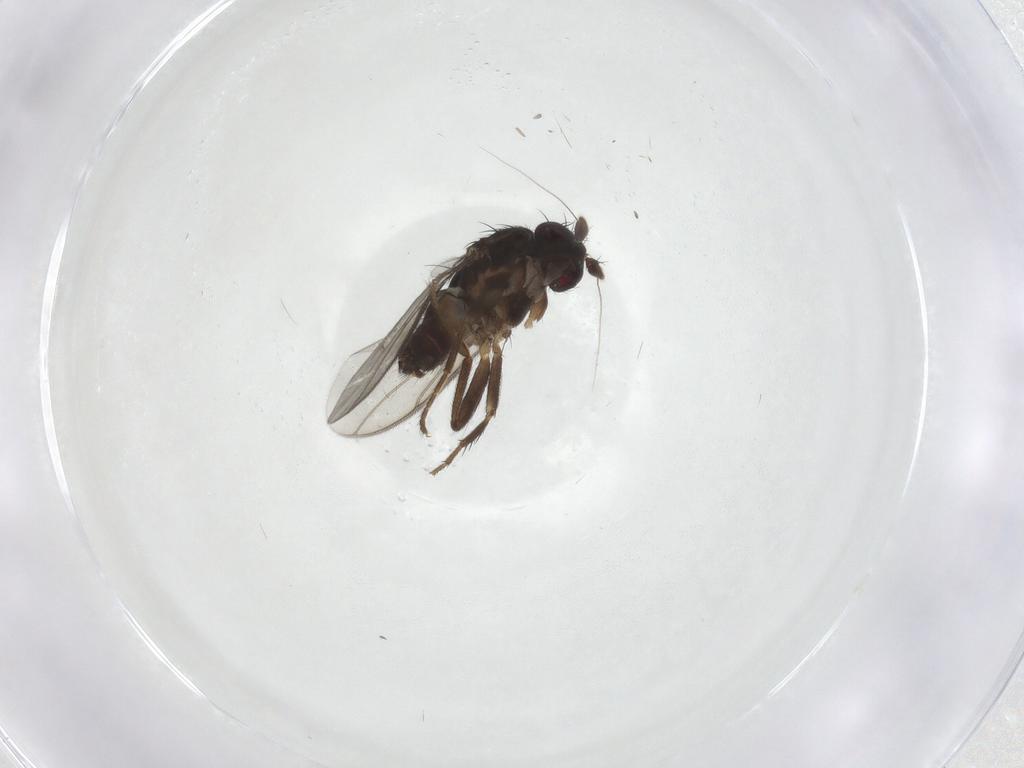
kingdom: Animalia
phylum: Arthropoda
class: Insecta
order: Diptera
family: Sphaeroceridae
